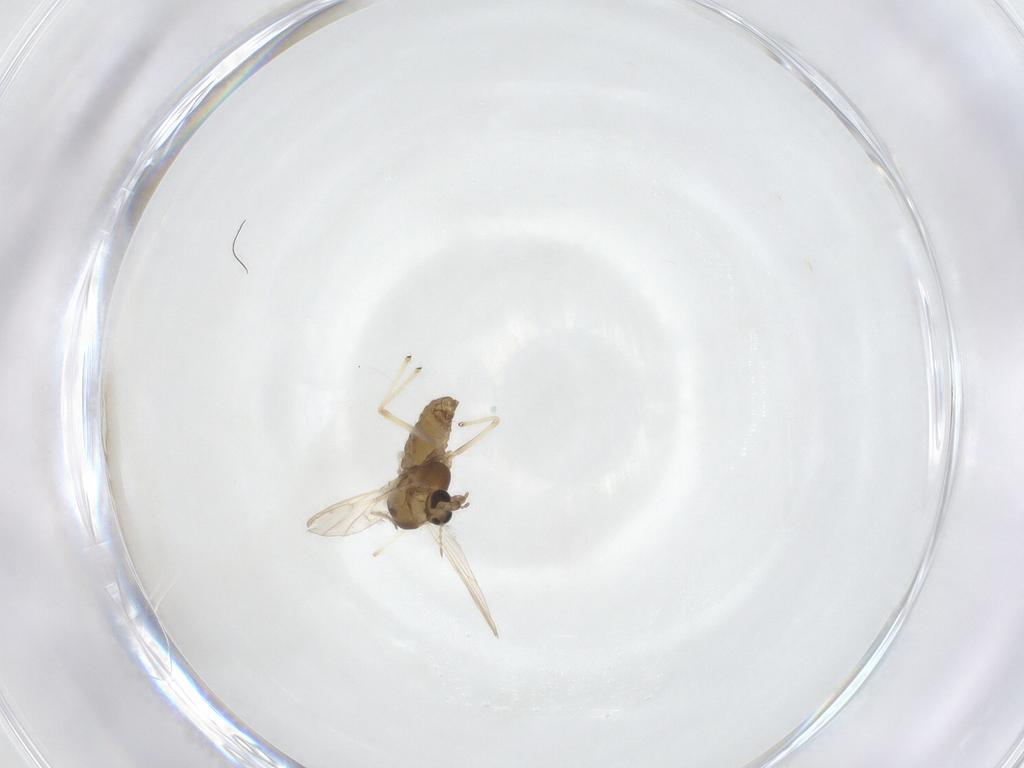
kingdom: Animalia
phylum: Arthropoda
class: Insecta
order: Diptera
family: Chironomidae
